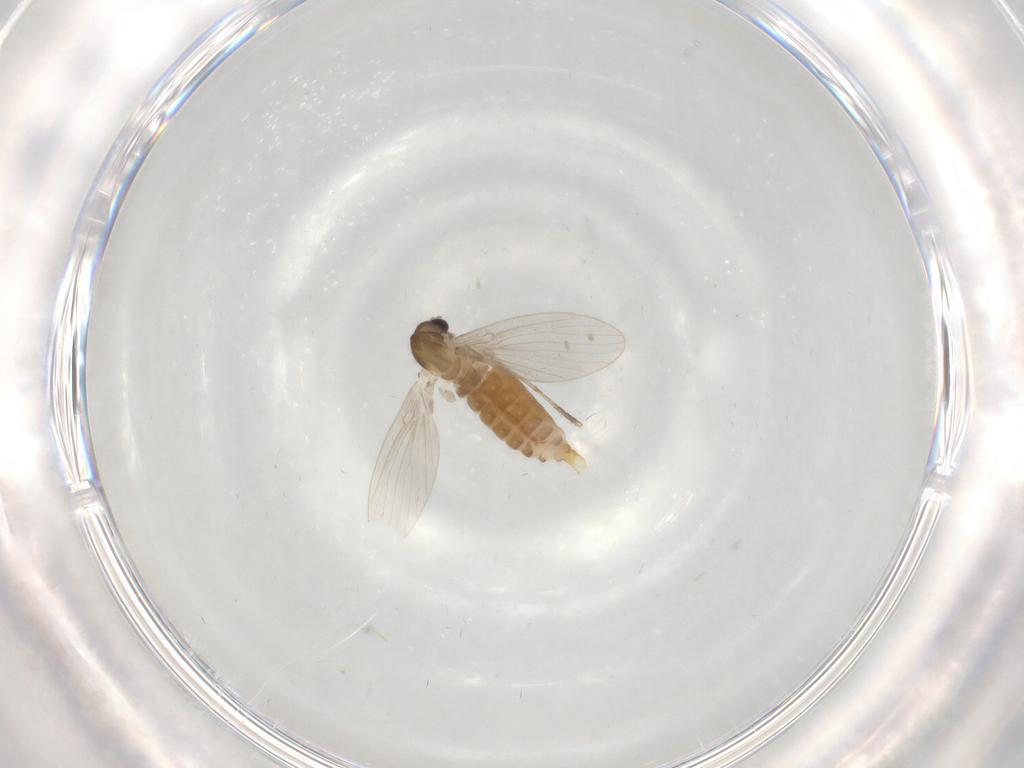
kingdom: Animalia
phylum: Arthropoda
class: Insecta
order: Diptera
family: Psychodidae
